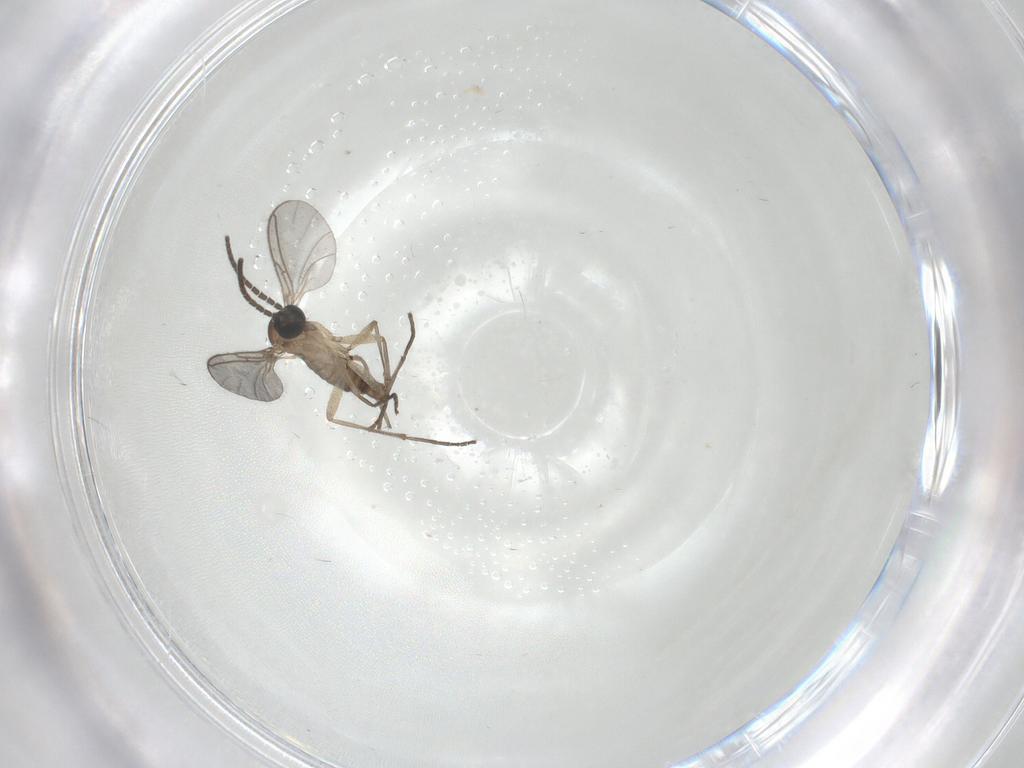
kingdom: Animalia
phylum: Arthropoda
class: Insecta
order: Diptera
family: Sciaridae
